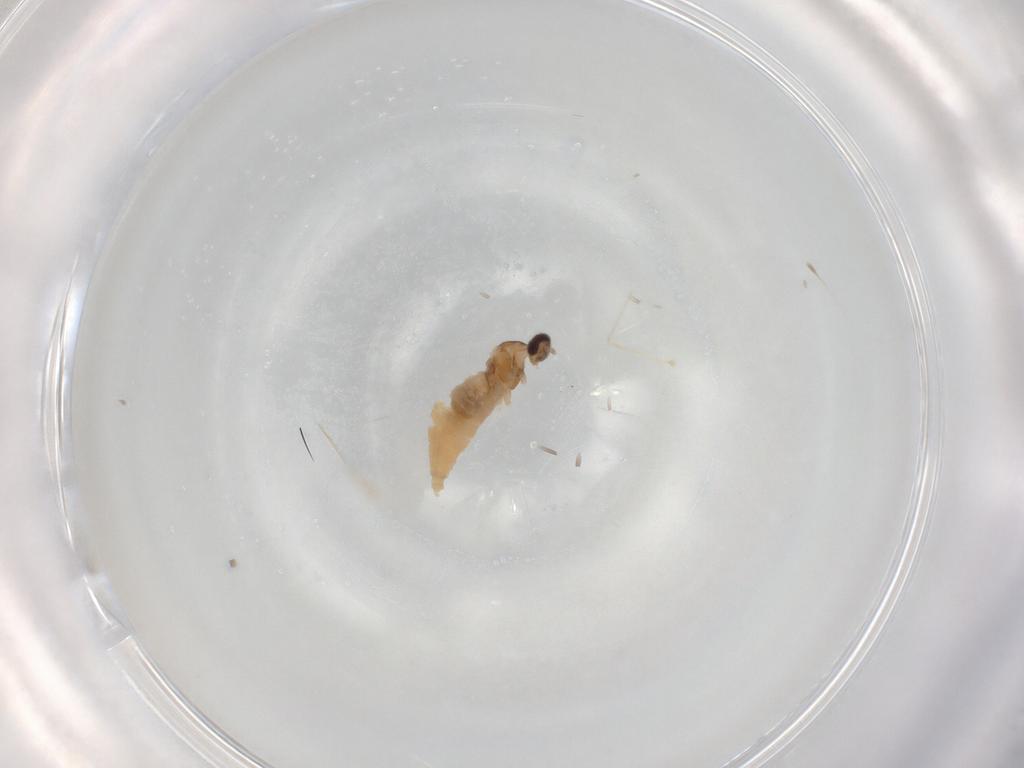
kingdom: Animalia
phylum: Arthropoda
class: Insecta
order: Diptera
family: Cecidomyiidae
